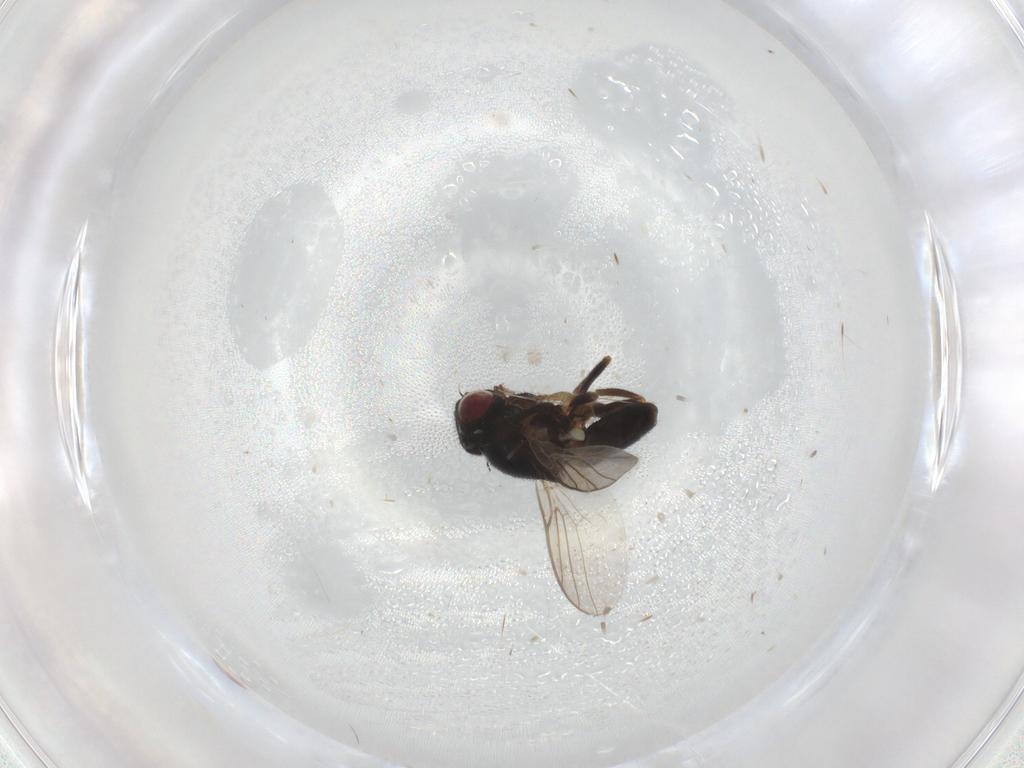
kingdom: Animalia
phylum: Arthropoda
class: Insecta
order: Diptera
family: Chloropidae
